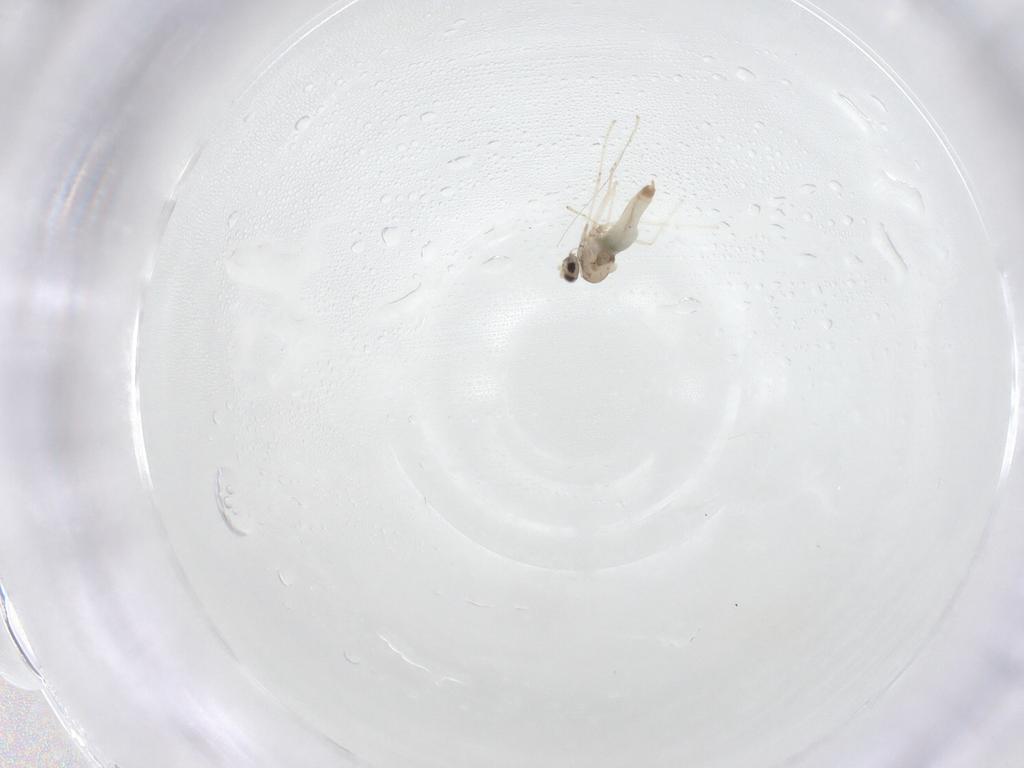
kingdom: Animalia
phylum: Arthropoda
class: Insecta
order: Diptera
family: Cecidomyiidae
